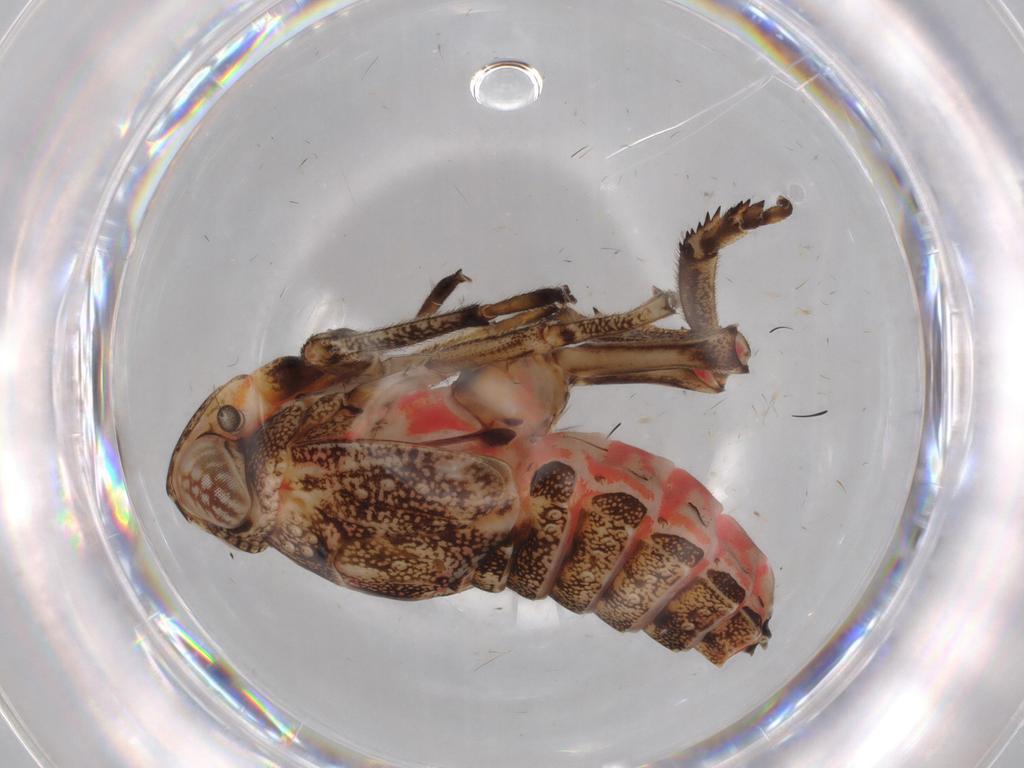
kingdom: Animalia
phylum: Arthropoda
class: Insecta
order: Hemiptera
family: Issidae
